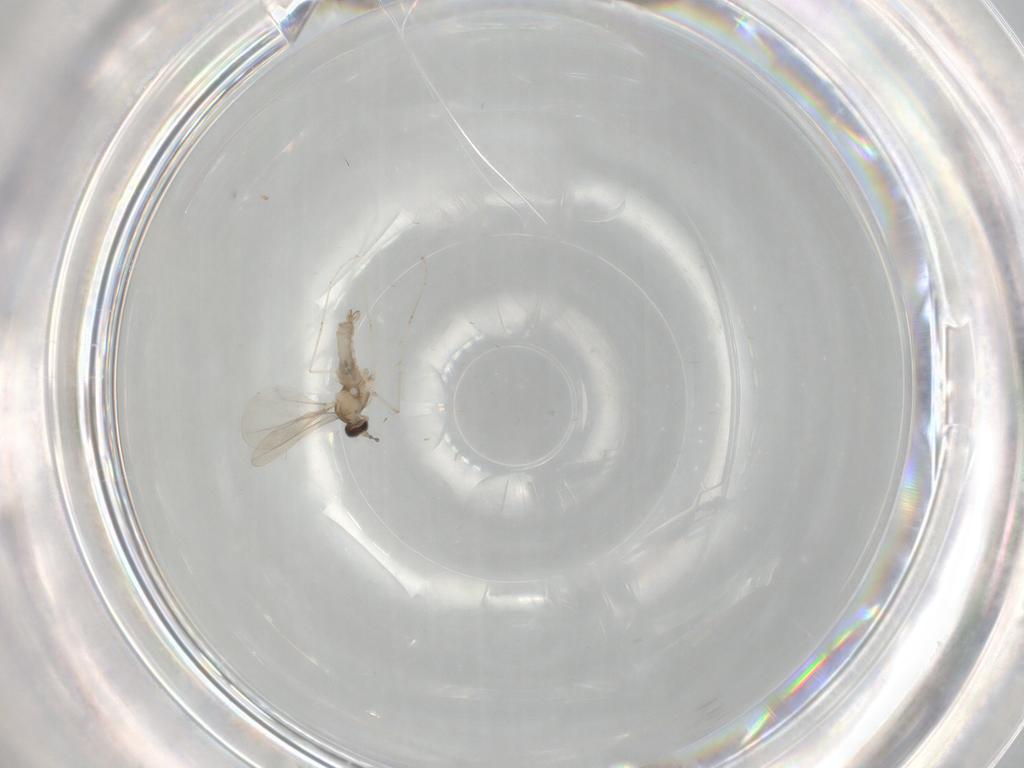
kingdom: Animalia
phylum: Arthropoda
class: Insecta
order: Diptera
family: Cecidomyiidae
